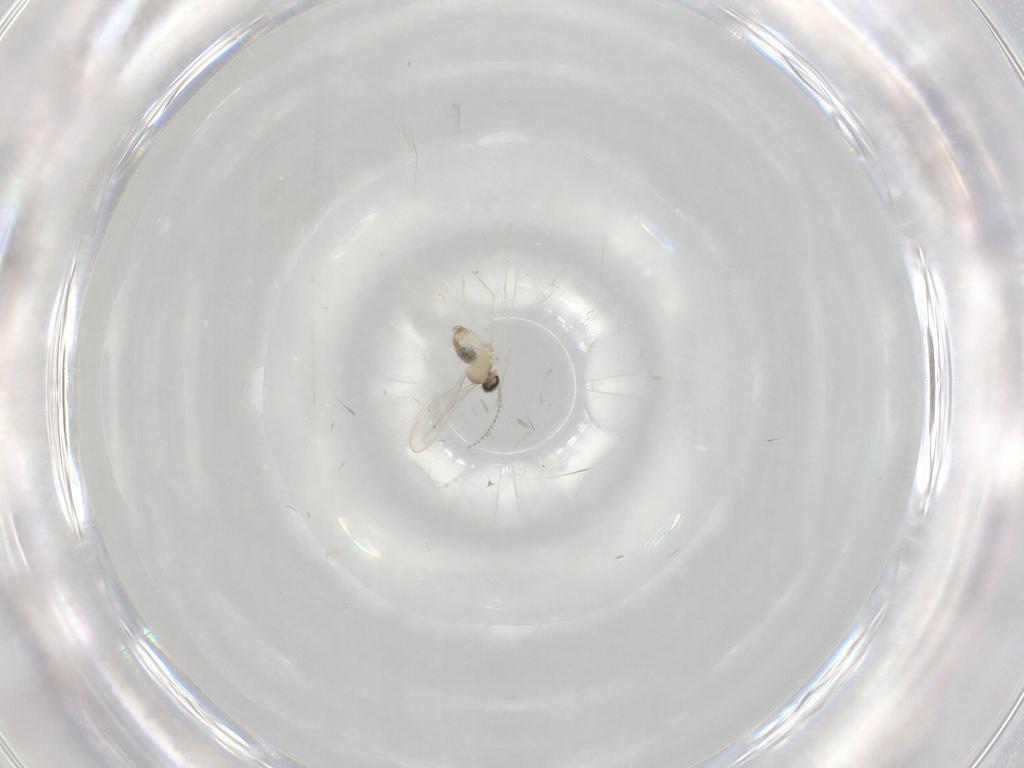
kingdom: Animalia
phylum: Arthropoda
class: Insecta
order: Diptera
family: Cecidomyiidae
